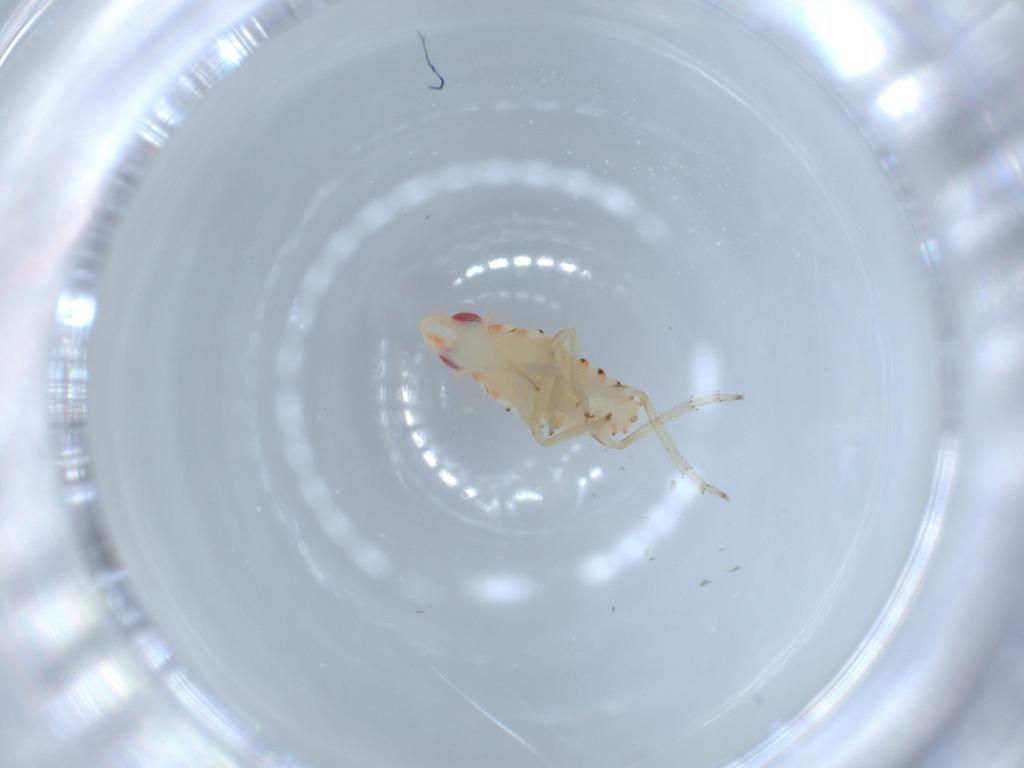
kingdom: Animalia
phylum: Arthropoda
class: Insecta
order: Hemiptera
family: Tropiduchidae
